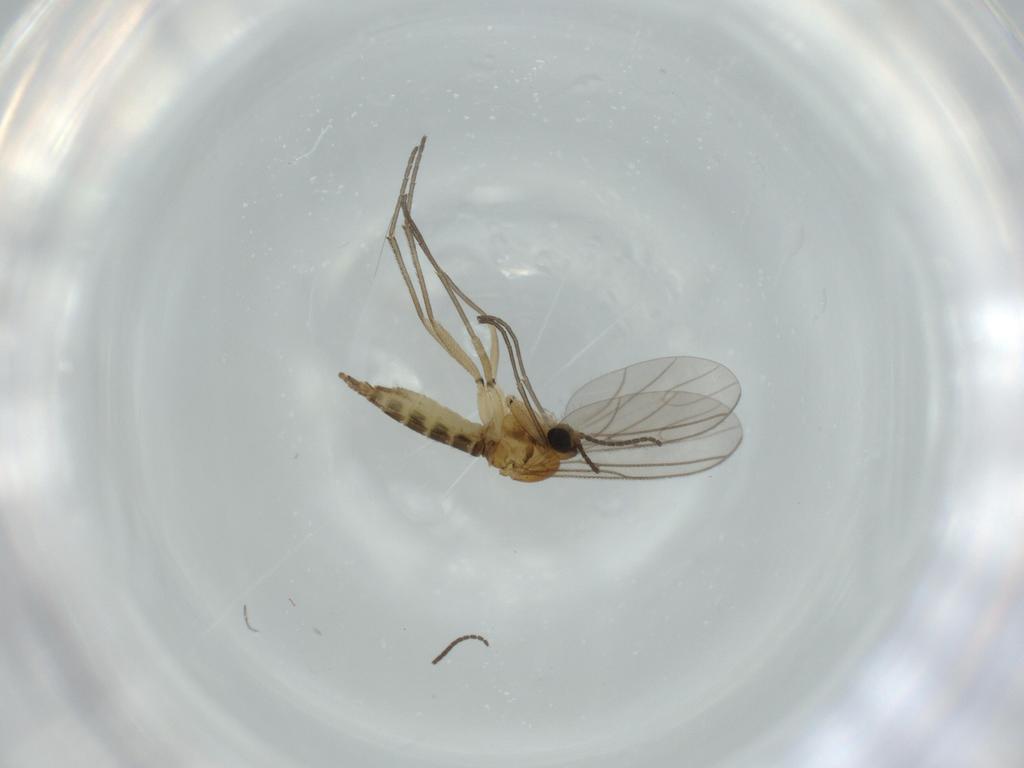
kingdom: Animalia
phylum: Arthropoda
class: Insecta
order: Diptera
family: Sciaridae
